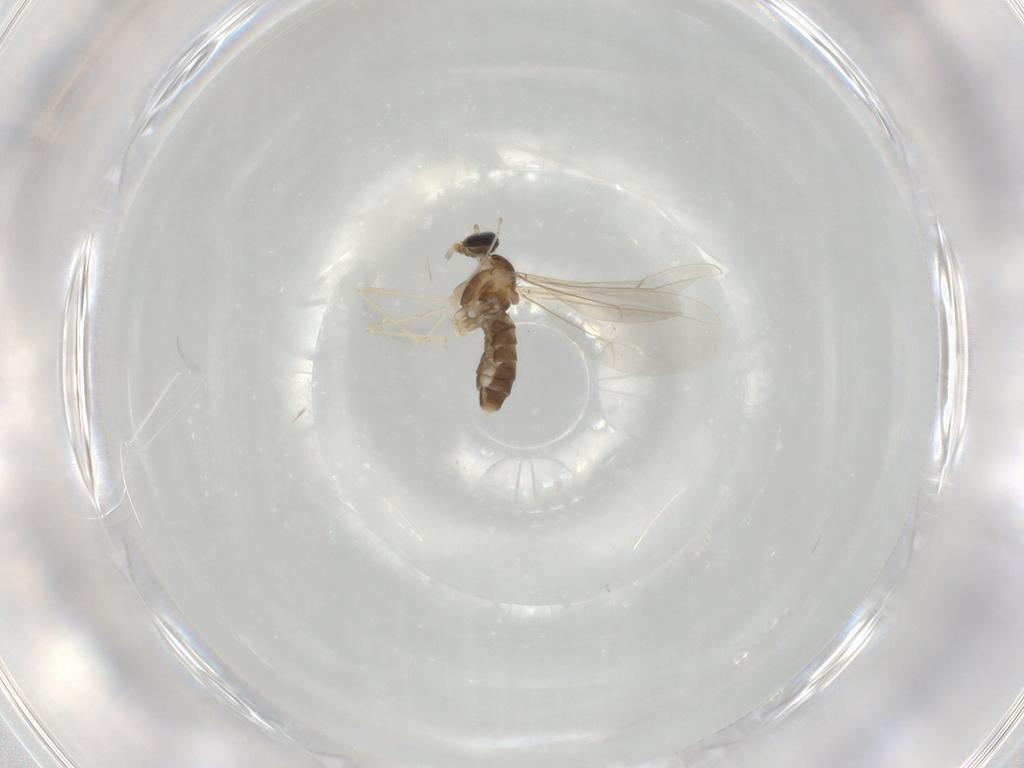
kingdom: Animalia
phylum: Arthropoda
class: Insecta
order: Diptera
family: Cecidomyiidae
